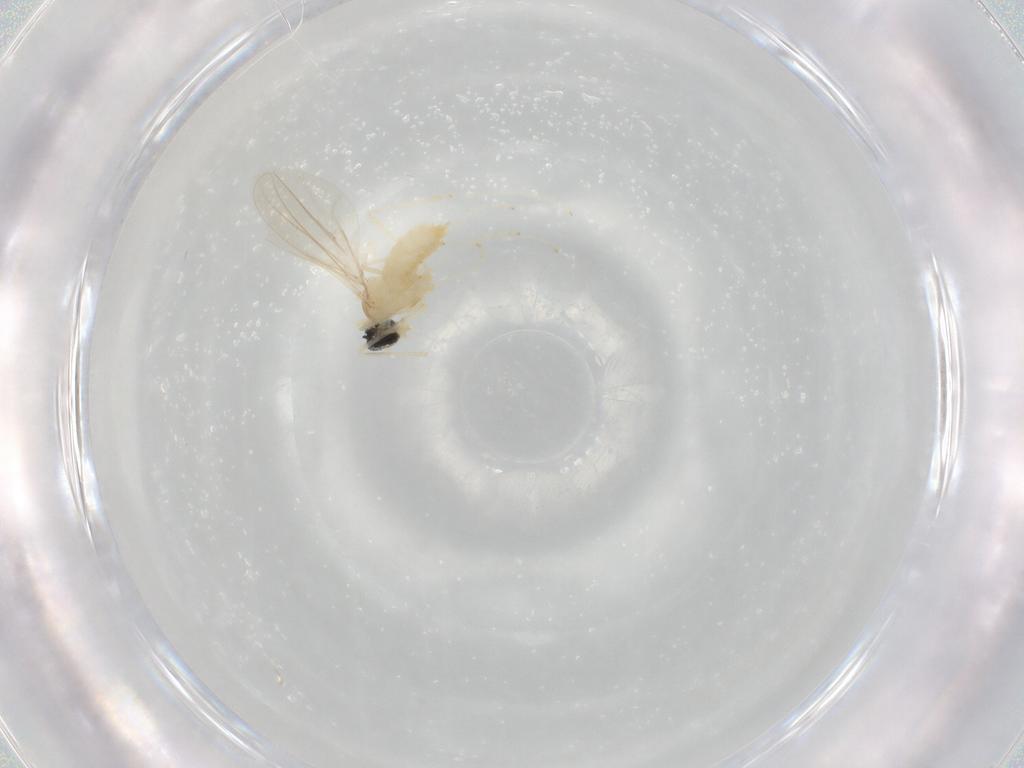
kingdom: Animalia
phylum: Arthropoda
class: Insecta
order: Diptera
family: Cecidomyiidae
